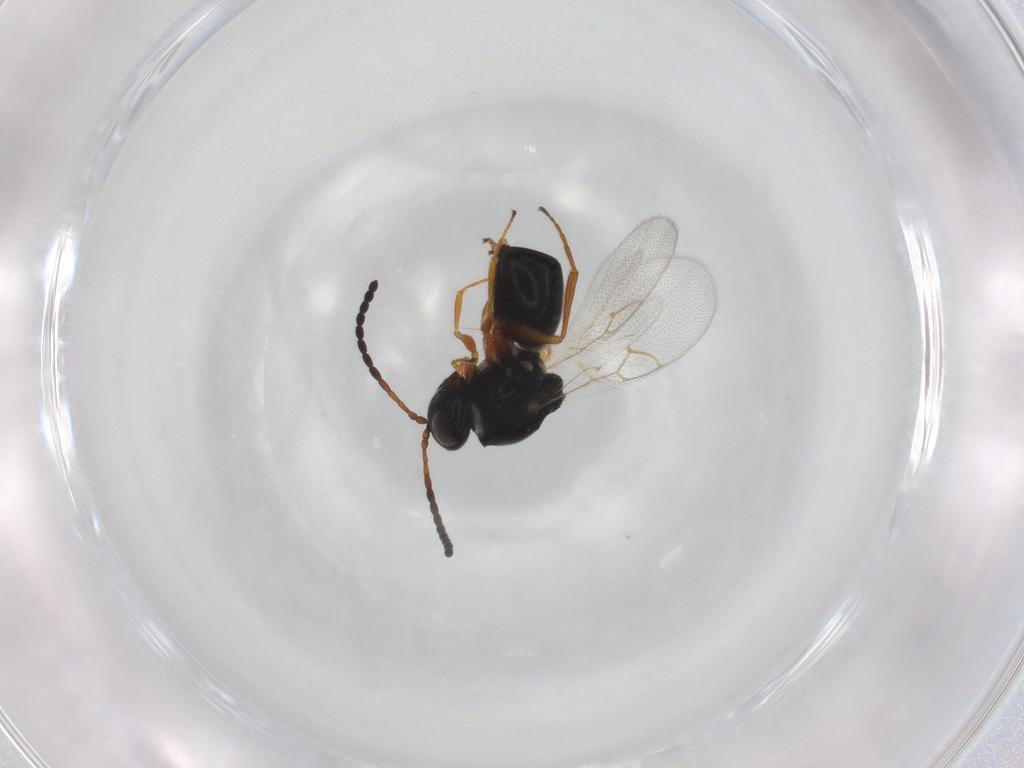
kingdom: Animalia
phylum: Arthropoda
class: Insecta
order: Hymenoptera
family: Figitidae
